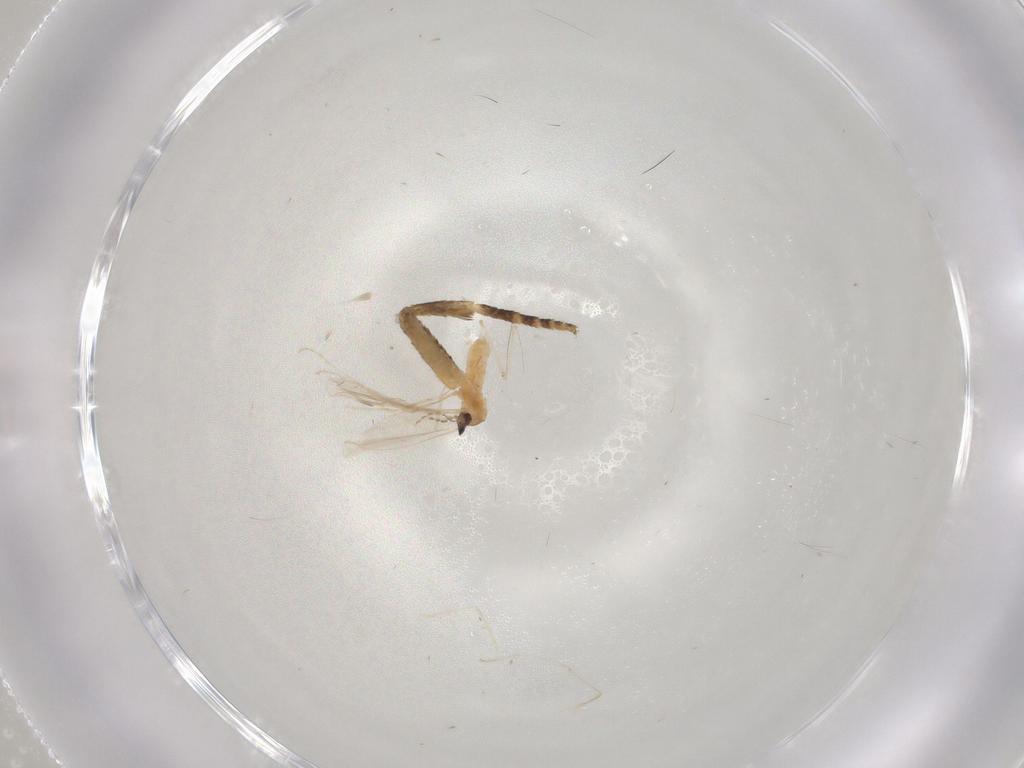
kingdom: Animalia
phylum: Arthropoda
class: Insecta
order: Diptera
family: Cecidomyiidae
